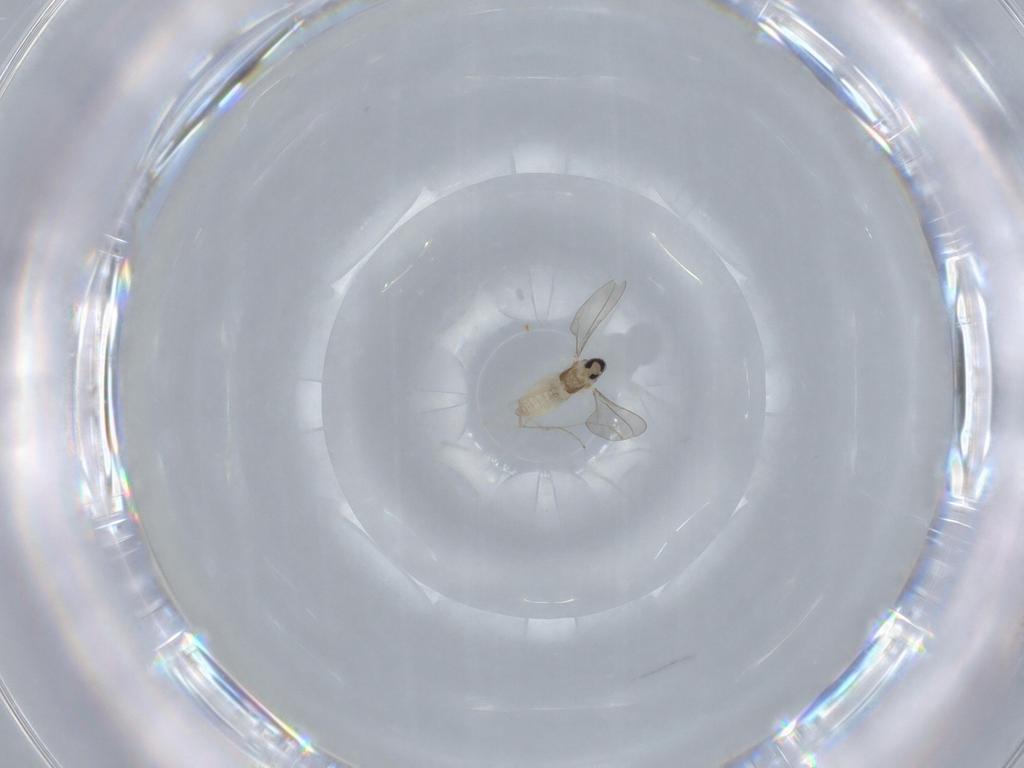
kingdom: Animalia
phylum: Arthropoda
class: Insecta
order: Diptera
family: Cecidomyiidae
